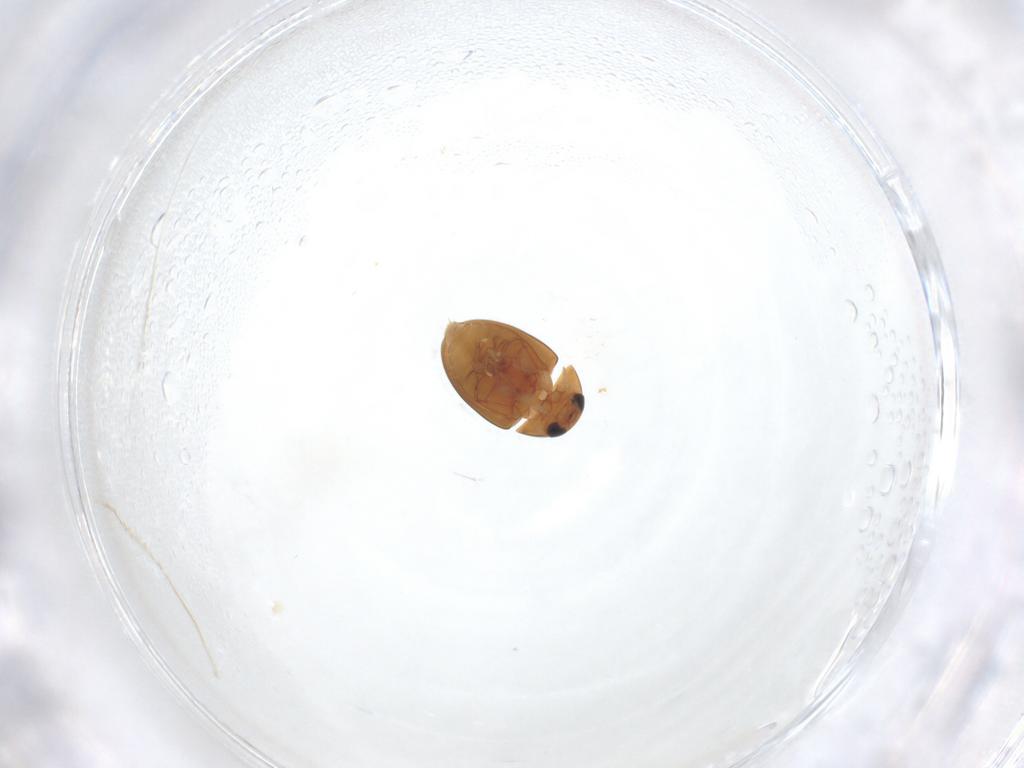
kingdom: Animalia
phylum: Arthropoda
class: Insecta
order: Coleoptera
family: Phalacridae
